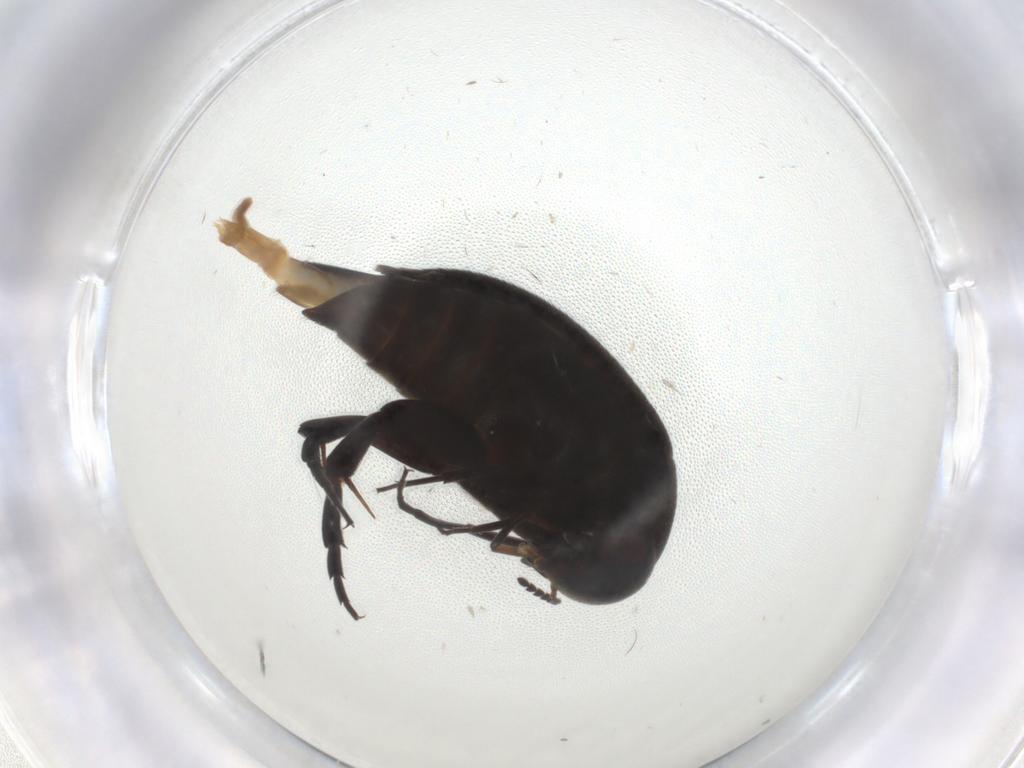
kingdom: Animalia
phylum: Arthropoda
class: Insecta
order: Coleoptera
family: Mordellidae
